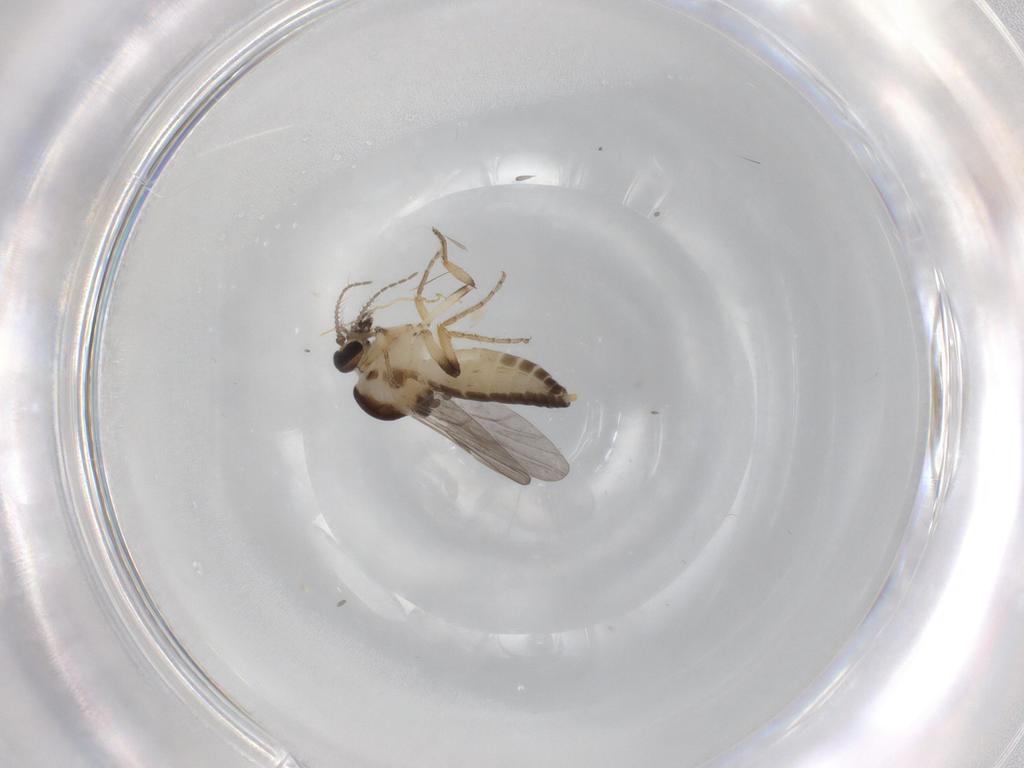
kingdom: Animalia
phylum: Arthropoda
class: Insecta
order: Diptera
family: Ceratopogonidae
